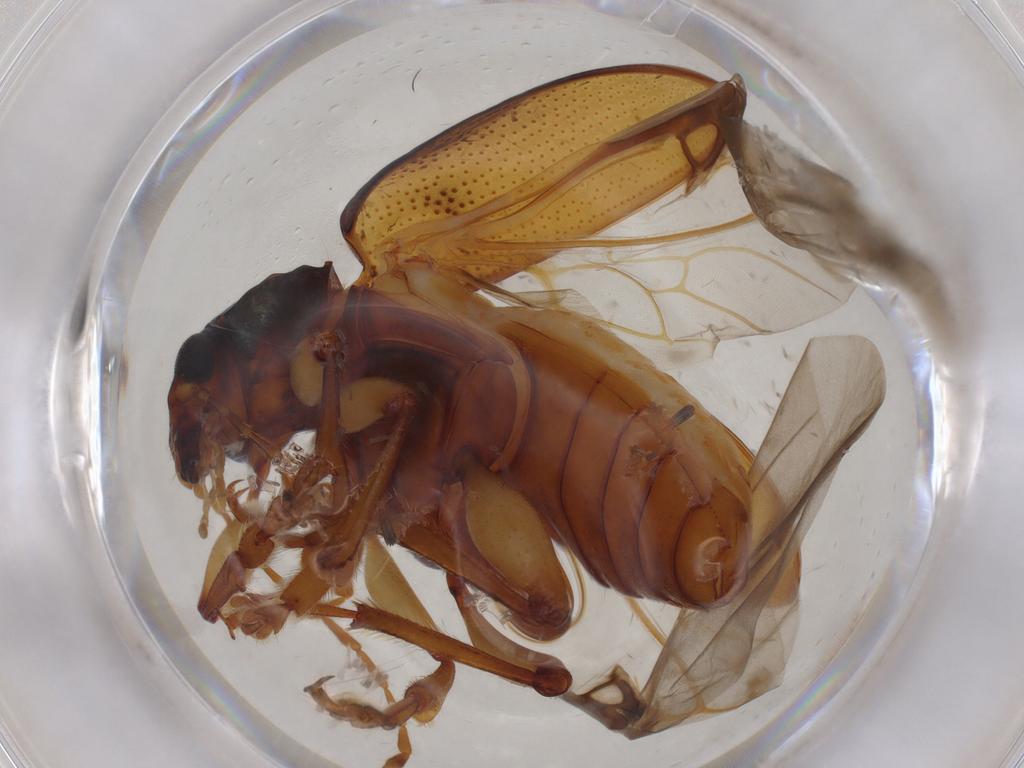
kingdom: Animalia
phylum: Arthropoda
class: Insecta
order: Coleoptera
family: Chrysomelidae
